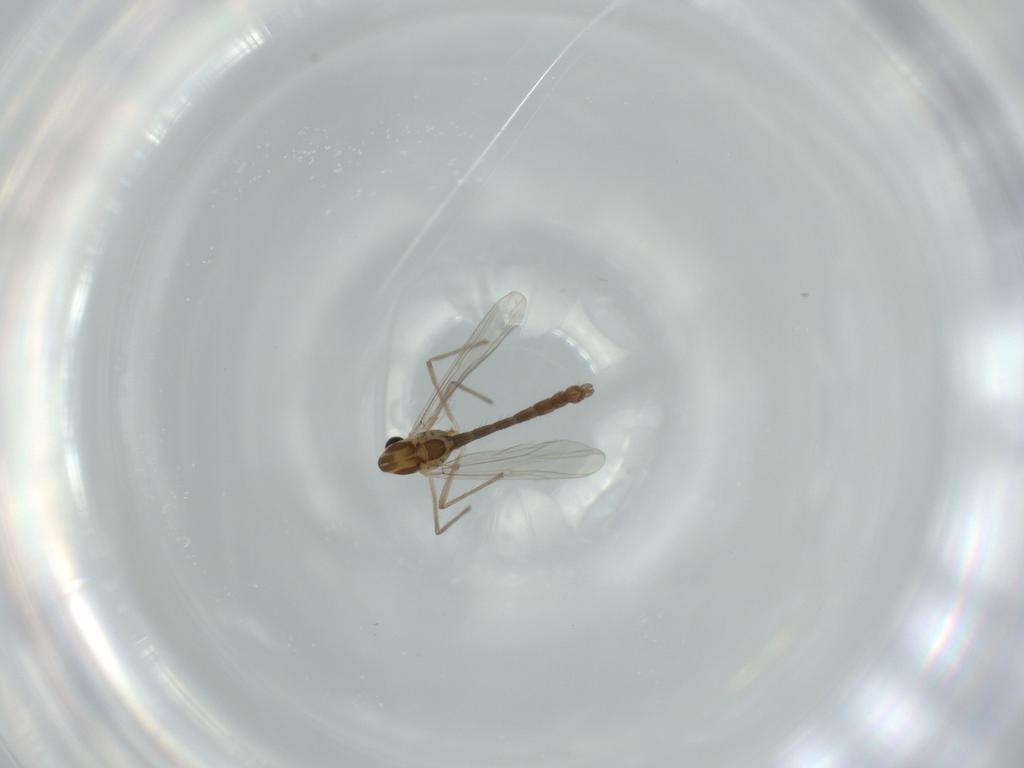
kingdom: Animalia
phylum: Arthropoda
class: Insecta
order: Diptera
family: Chironomidae
